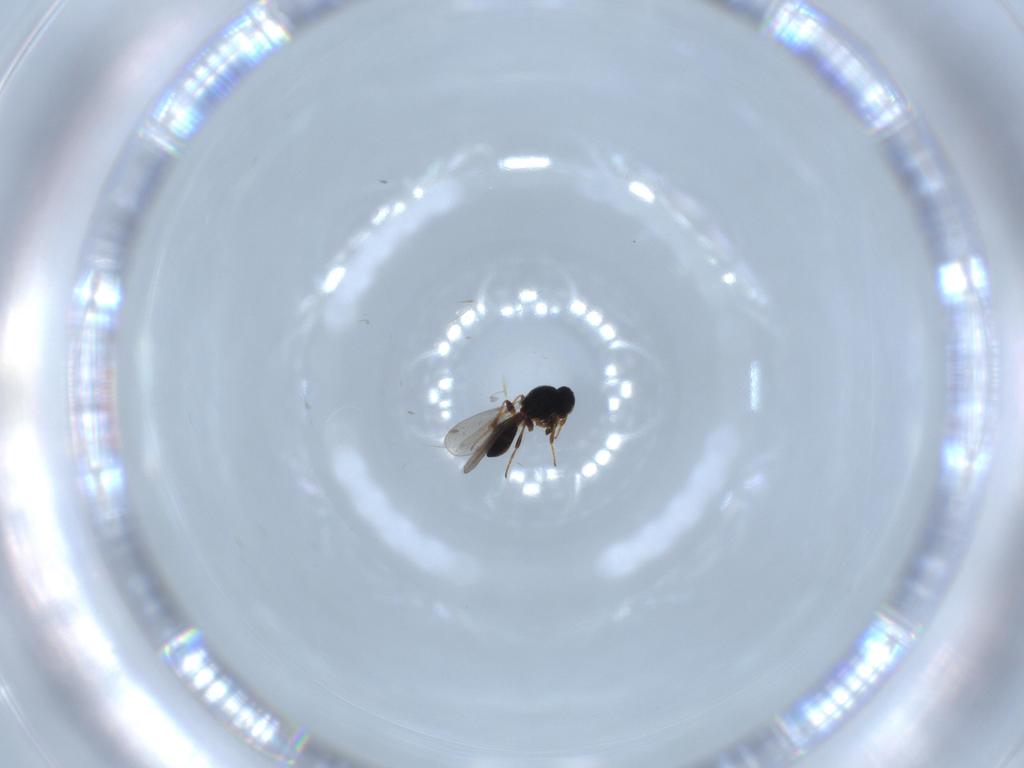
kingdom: Animalia
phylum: Arthropoda
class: Insecta
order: Hymenoptera
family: Platygastridae
